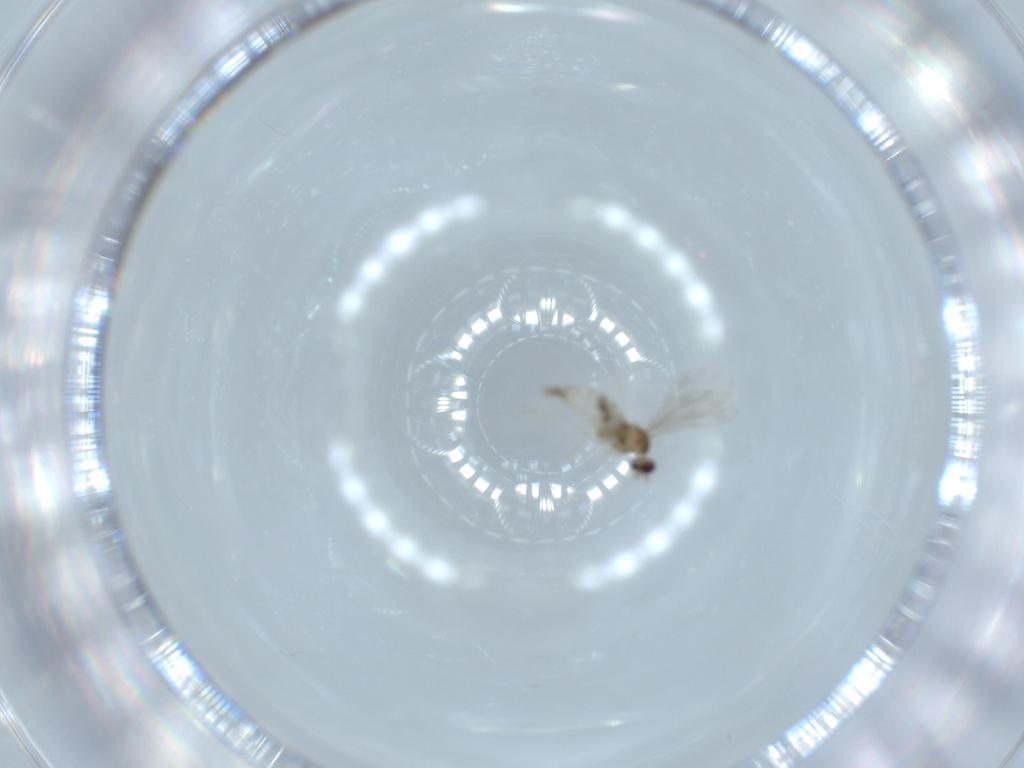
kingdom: Animalia
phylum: Arthropoda
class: Insecta
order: Diptera
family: Cecidomyiidae
